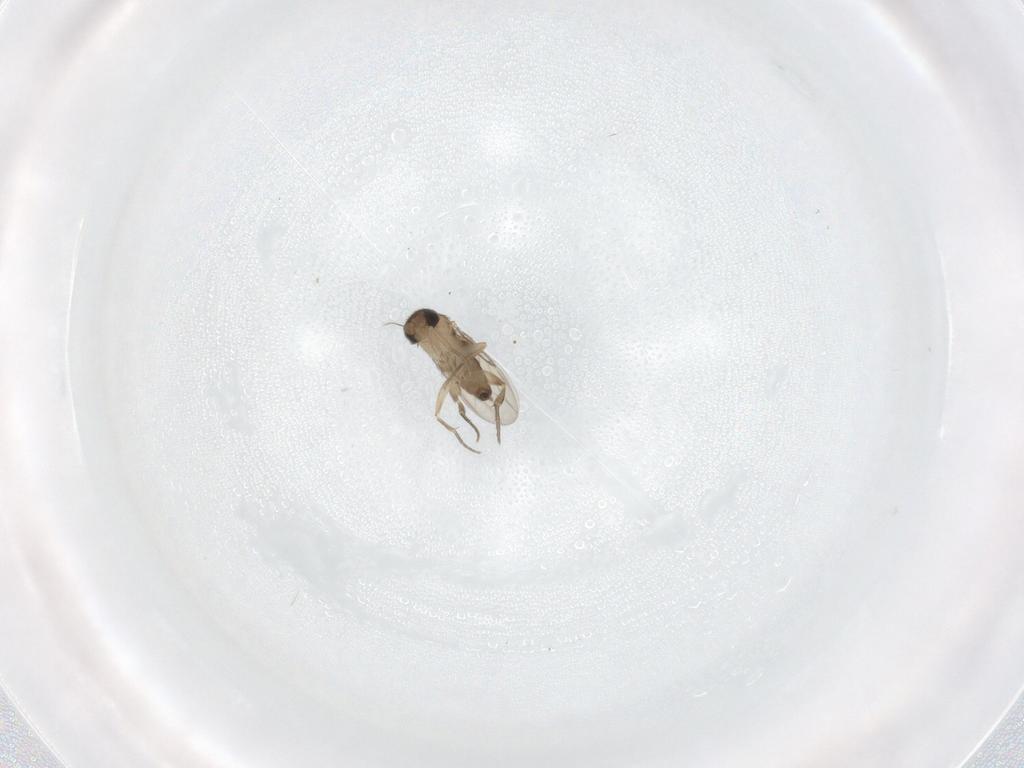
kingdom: Animalia
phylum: Arthropoda
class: Insecta
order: Diptera
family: Phoridae
